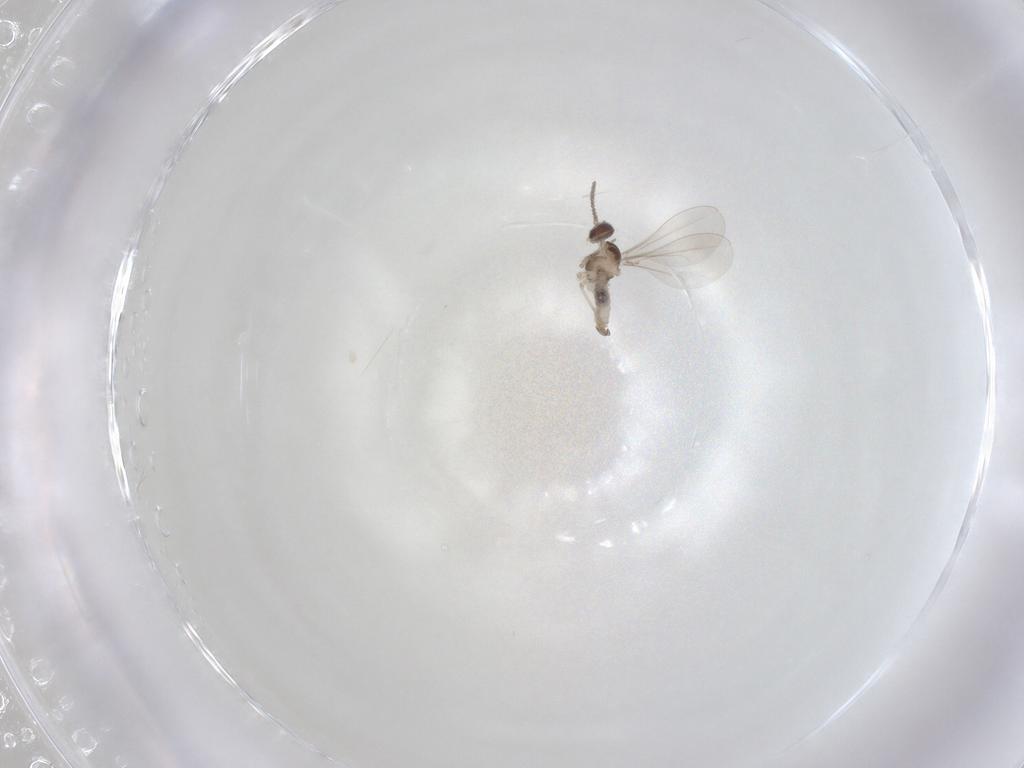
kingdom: Animalia
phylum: Arthropoda
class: Insecta
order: Diptera
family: Cecidomyiidae
